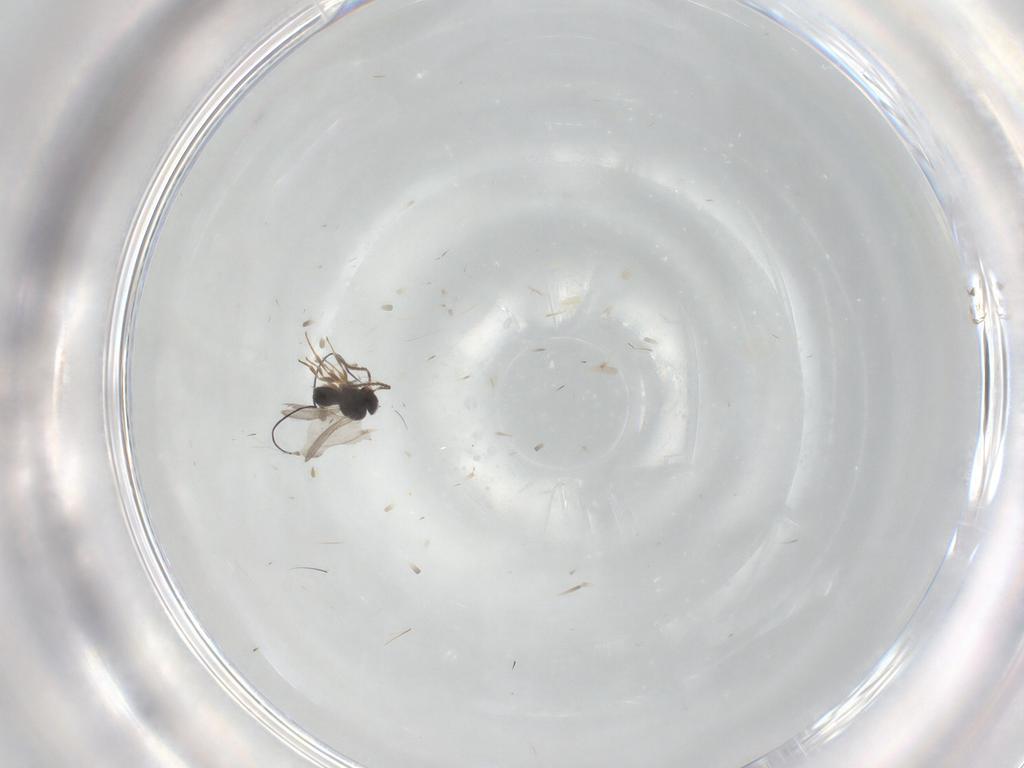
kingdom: Animalia
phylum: Arthropoda
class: Insecta
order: Hymenoptera
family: Scelionidae
